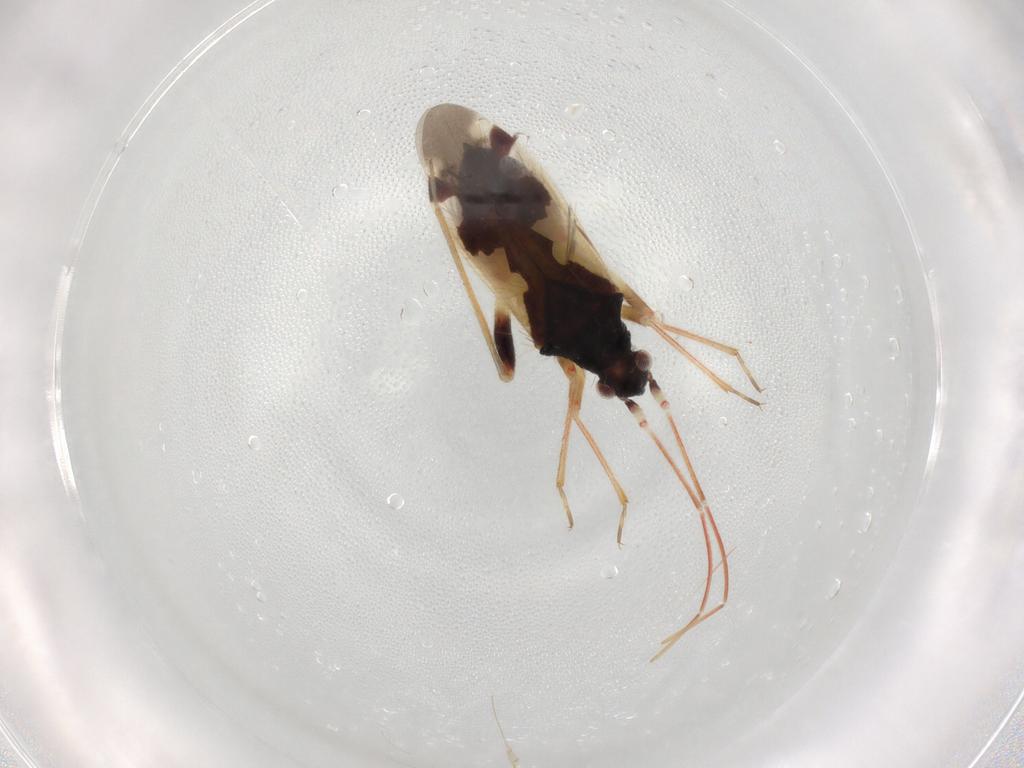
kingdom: Animalia
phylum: Arthropoda
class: Insecta
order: Hemiptera
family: Miridae
